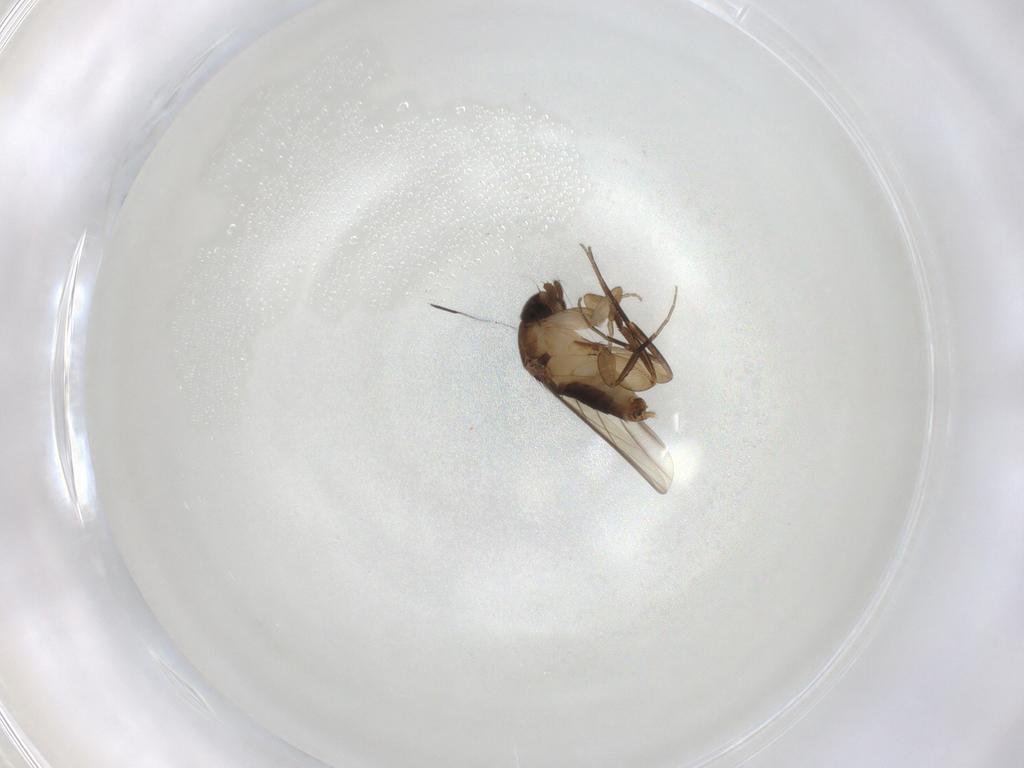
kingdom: Animalia
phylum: Arthropoda
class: Insecta
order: Diptera
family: Phoridae
